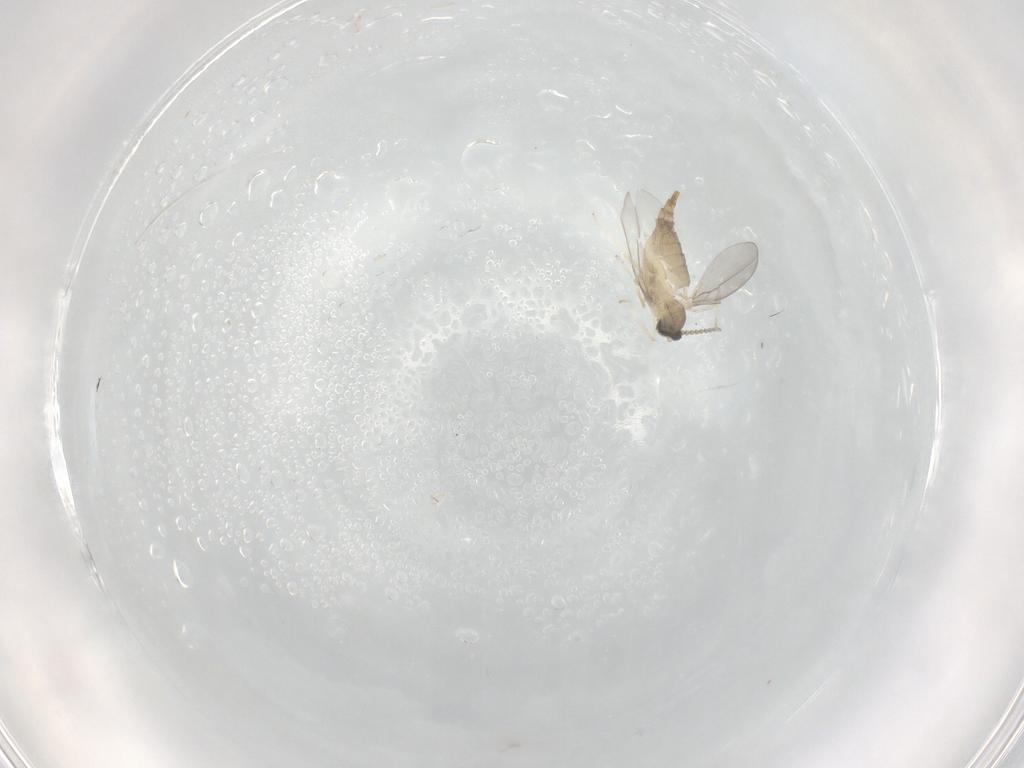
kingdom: Animalia
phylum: Arthropoda
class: Insecta
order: Diptera
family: Cecidomyiidae
